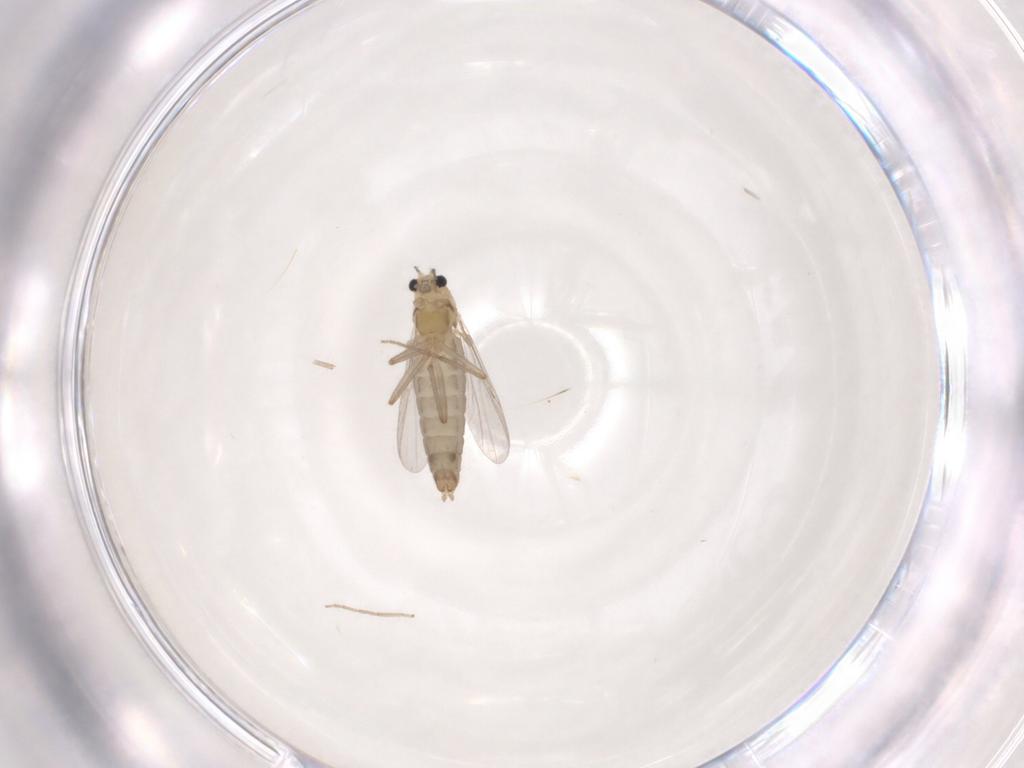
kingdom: Animalia
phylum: Arthropoda
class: Insecta
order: Diptera
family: Chironomidae
